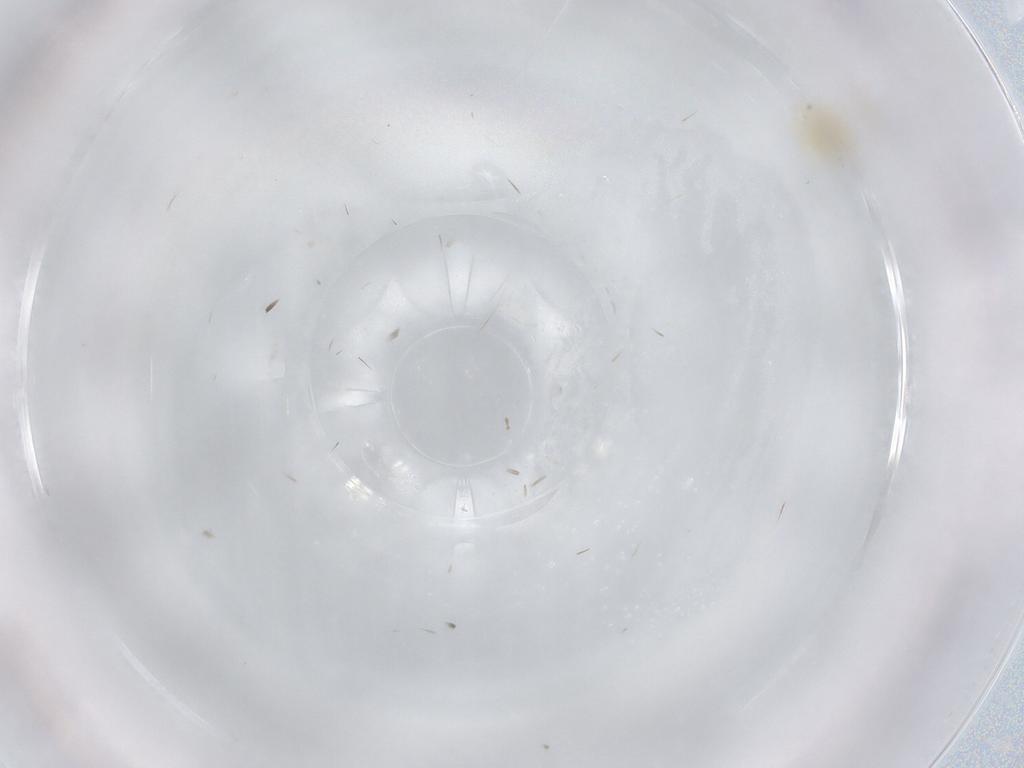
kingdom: Animalia
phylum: Arthropoda
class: Insecta
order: Hymenoptera
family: Aphelinidae
